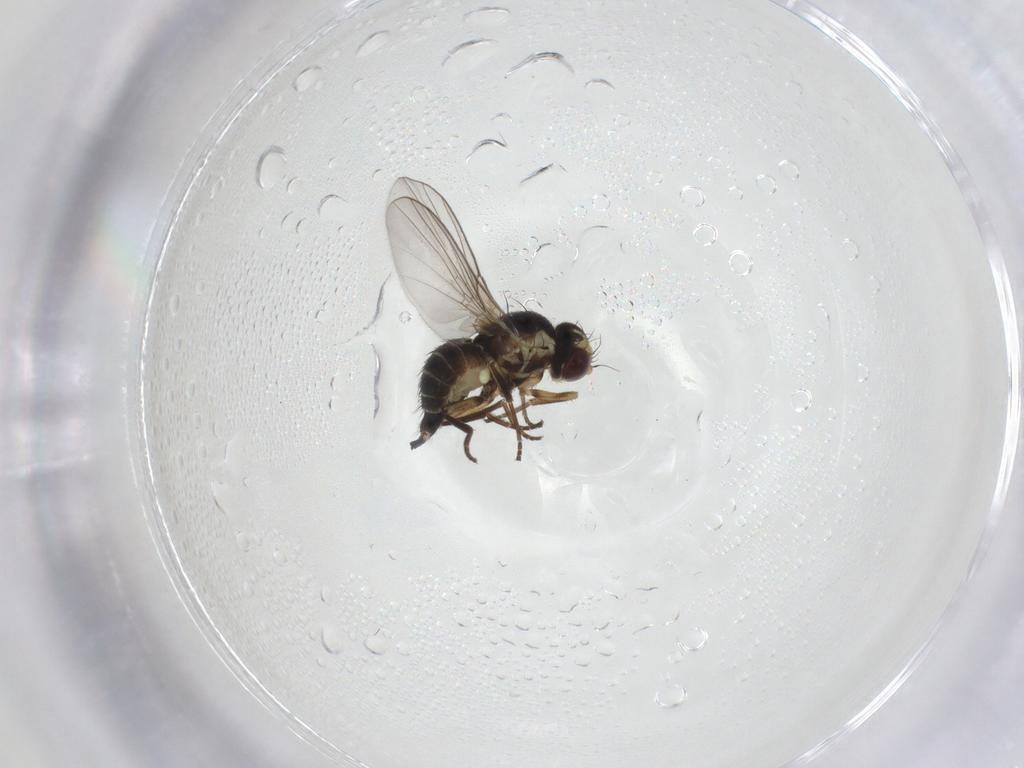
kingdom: Animalia
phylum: Arthropoda
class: Insecta
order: Diptera
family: Agromyzidae
